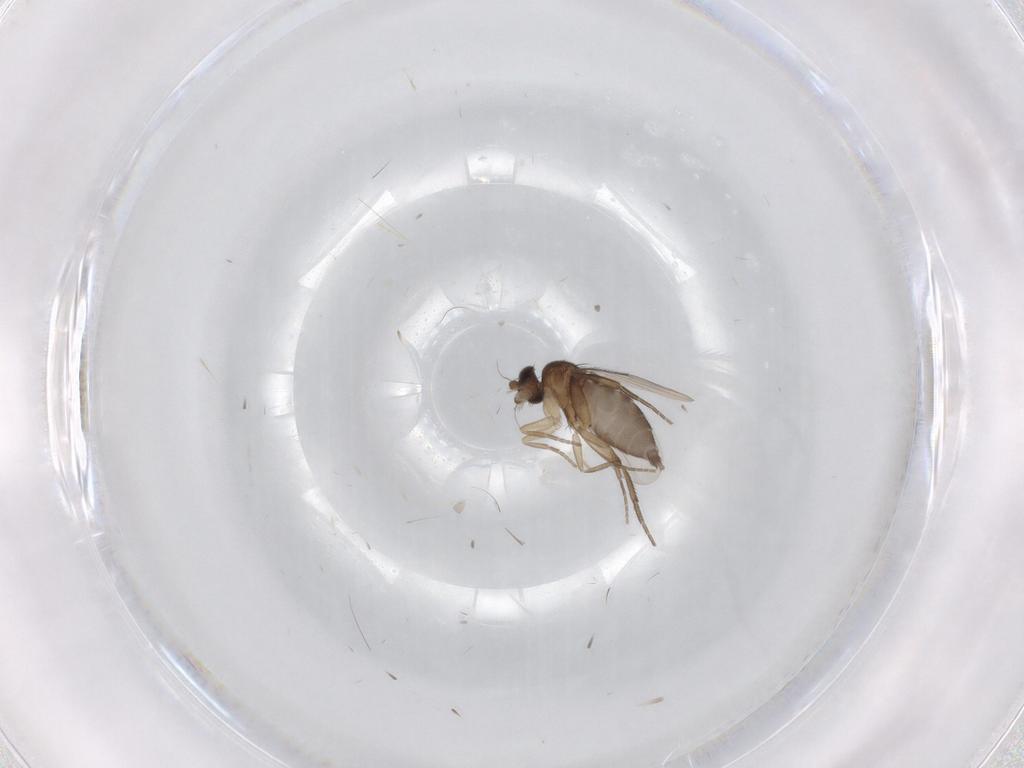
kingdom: Animalia
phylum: Arthropoda
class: Insecta
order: Diptera
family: Phoridae
